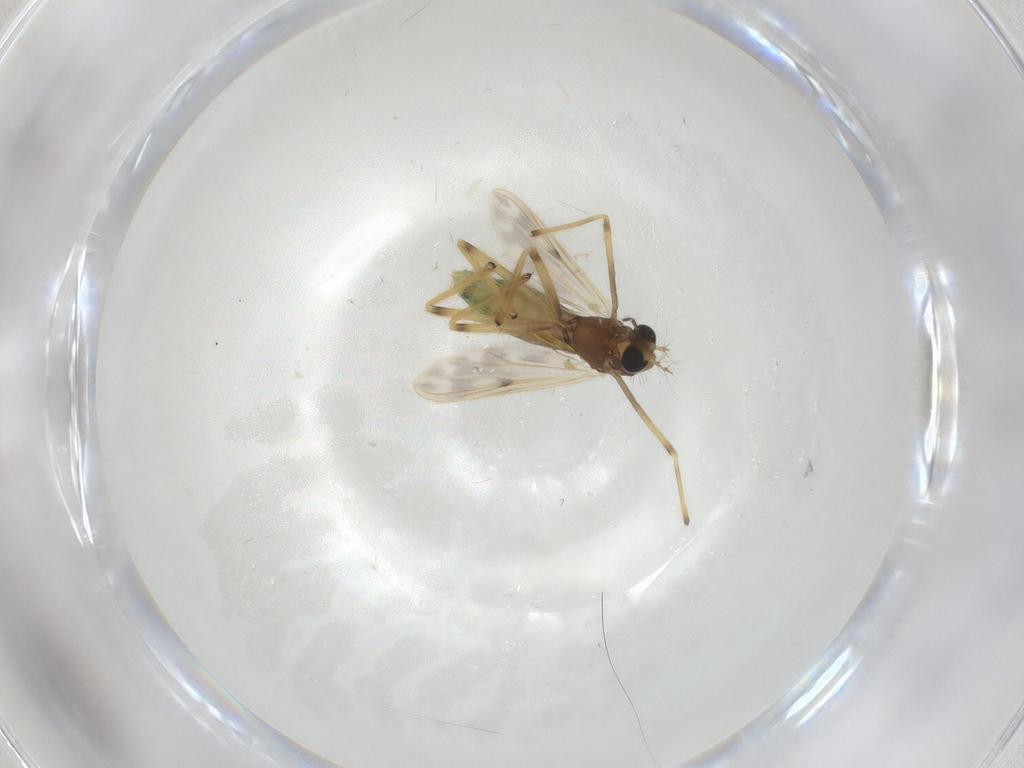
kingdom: Animalia
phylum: Arthropoda
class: Insecta
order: Diptera
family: Chironomidae
